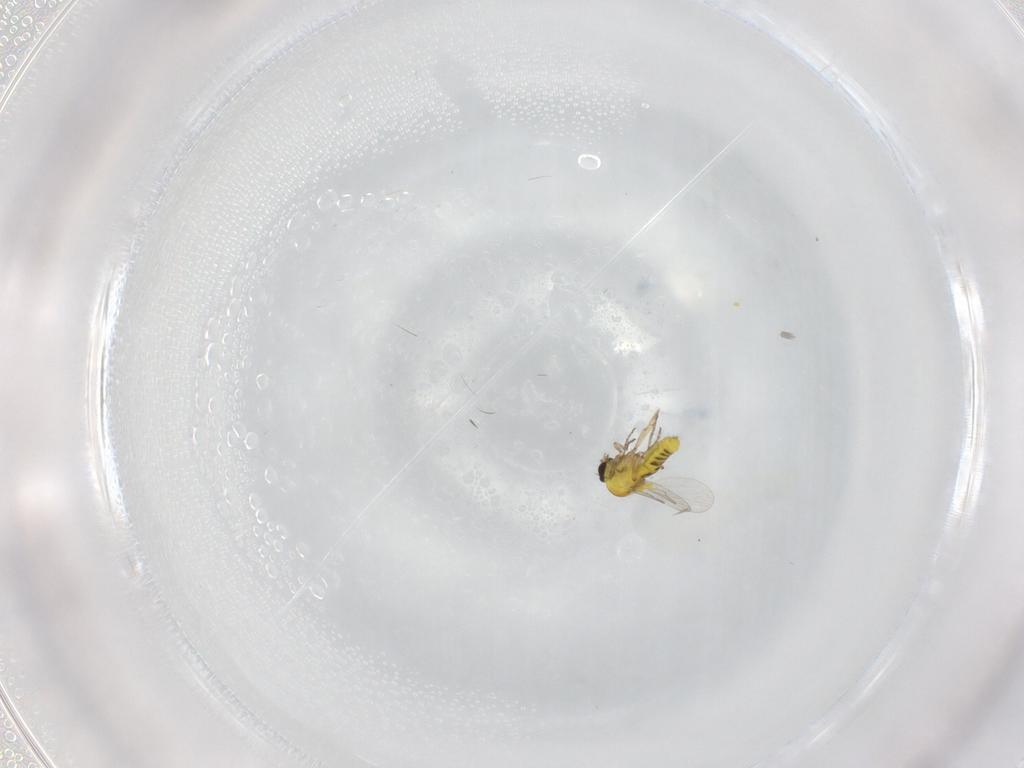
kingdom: Animalia
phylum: Arthropoda
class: Insecta
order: Diptera
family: Ceratopogonidae
